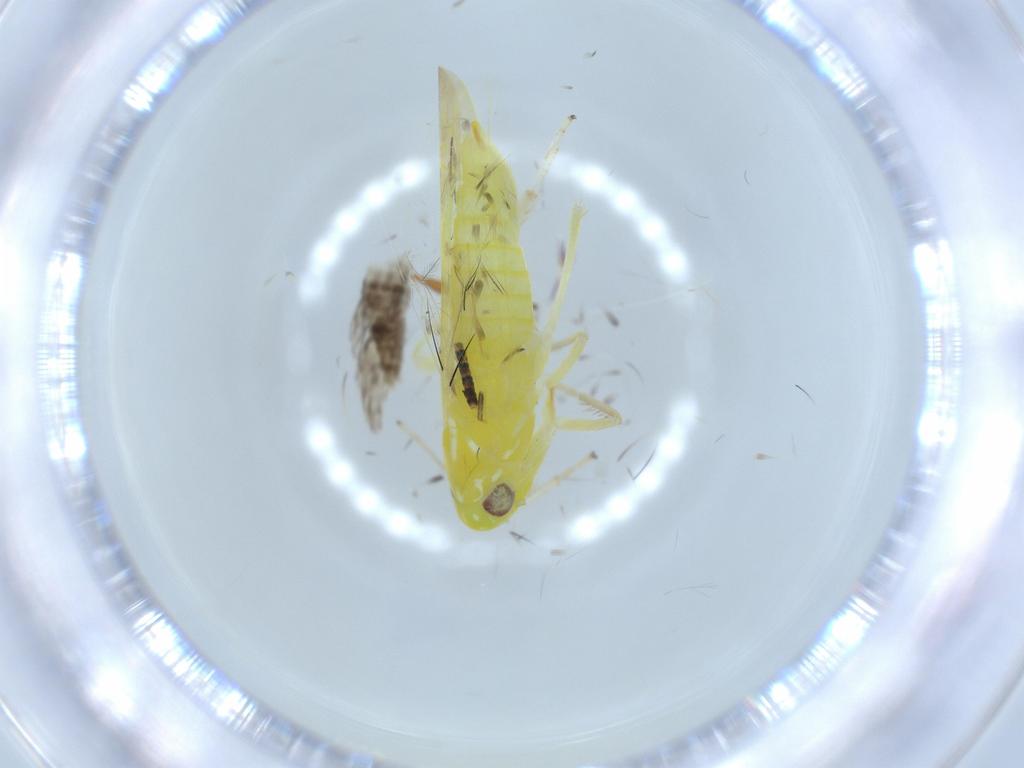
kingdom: Animalia
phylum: Arthropoda
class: Insecta
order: Hemiptera
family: Cicadellidae
